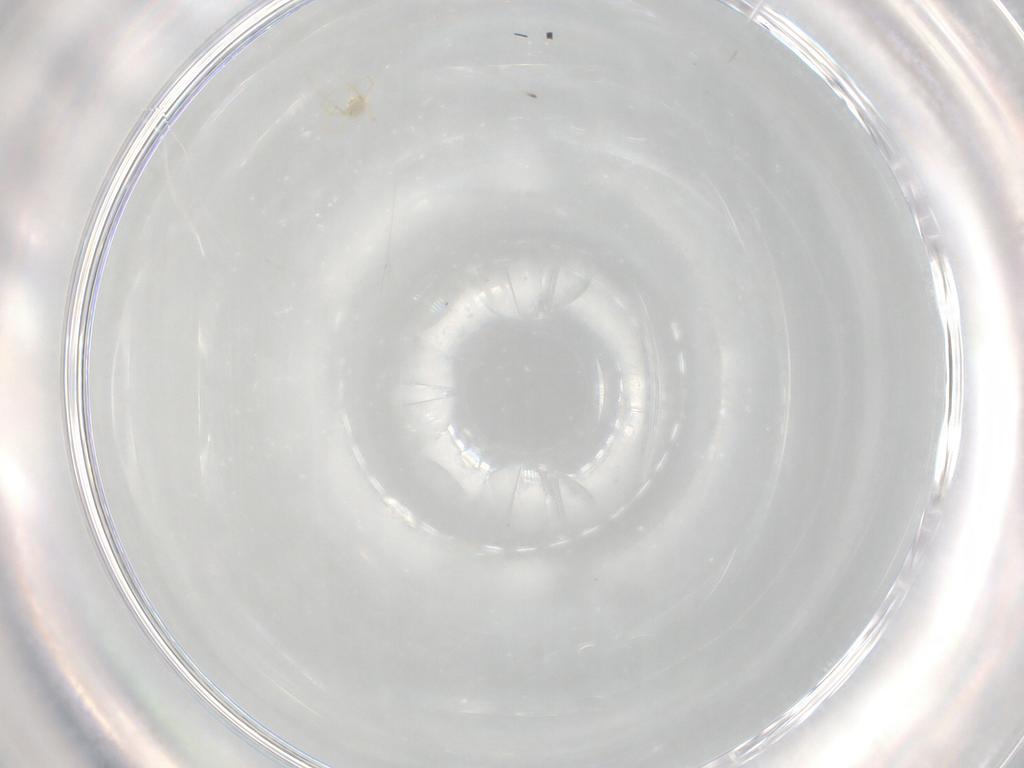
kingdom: Animalia
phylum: Arthropoda
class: Arachnida
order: Trombidiformes
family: Erythraeidae
